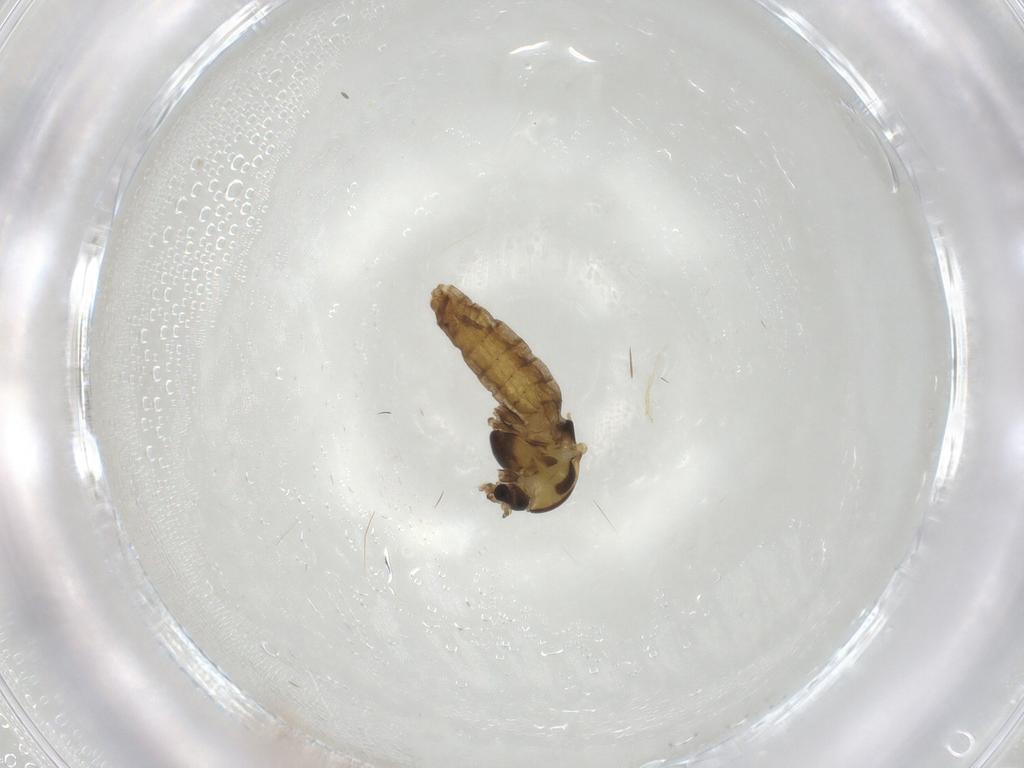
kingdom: Animalia
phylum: Arthropoda
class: Insecta
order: Diptera
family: Chironomidae
